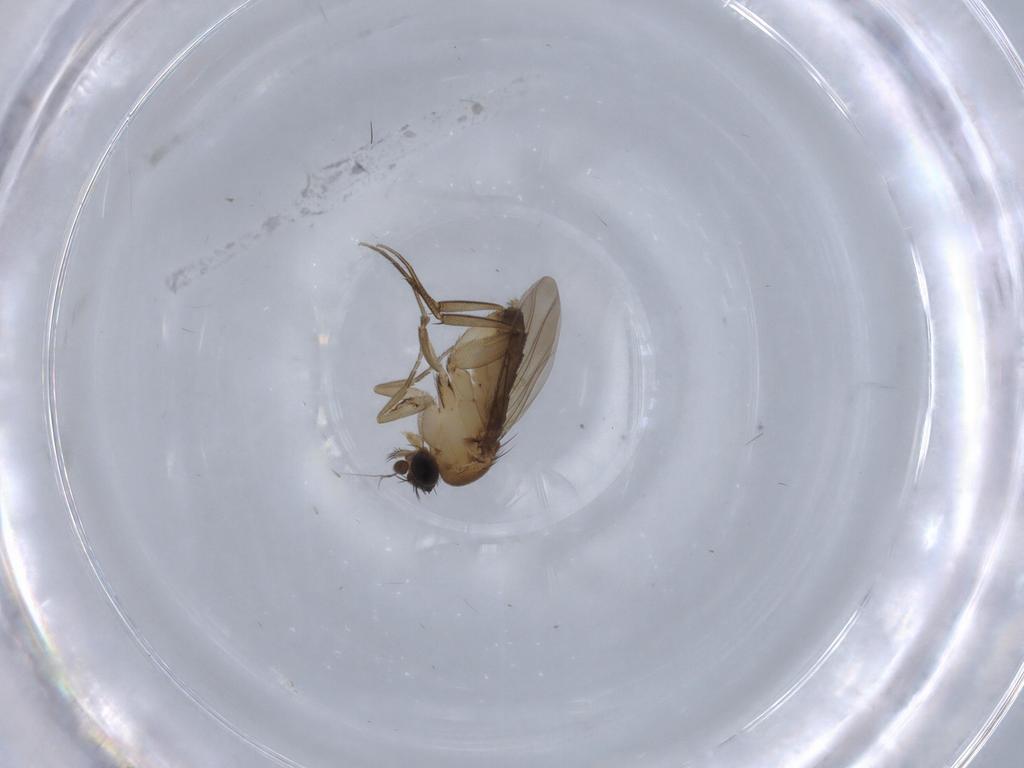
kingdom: Animalia
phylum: Arthropoda
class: Insecta
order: Diptera
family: Phoridae
